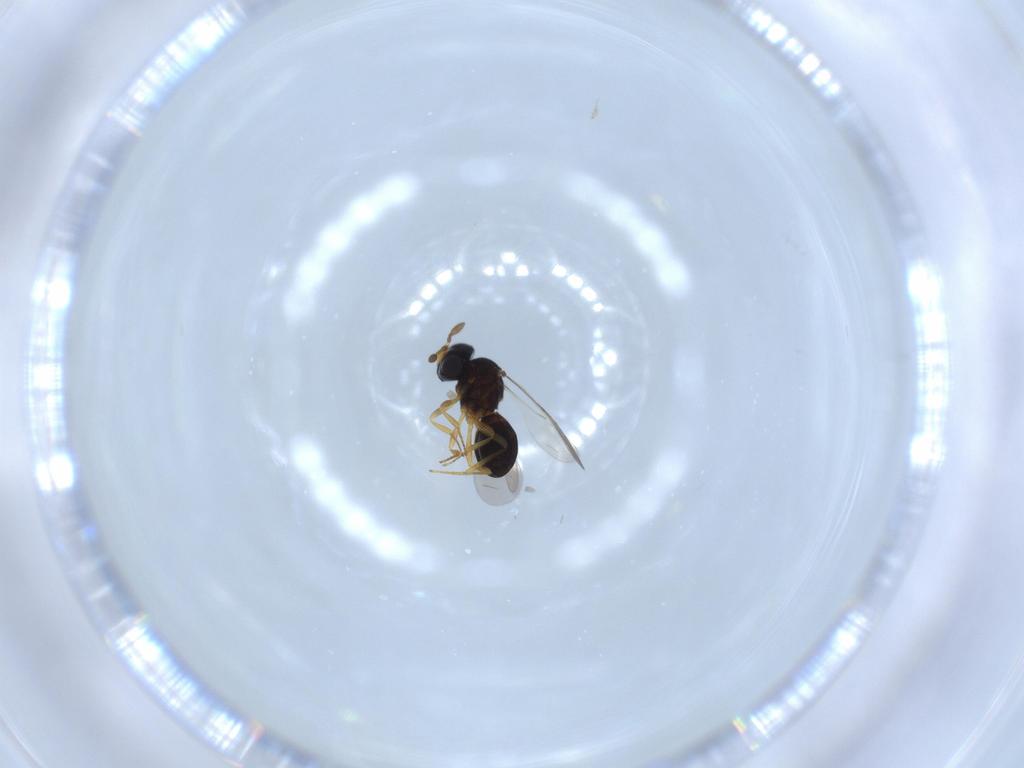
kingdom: Animalia
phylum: Arthropoda
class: Insecta
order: Hymenoptera
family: Scelionidae
